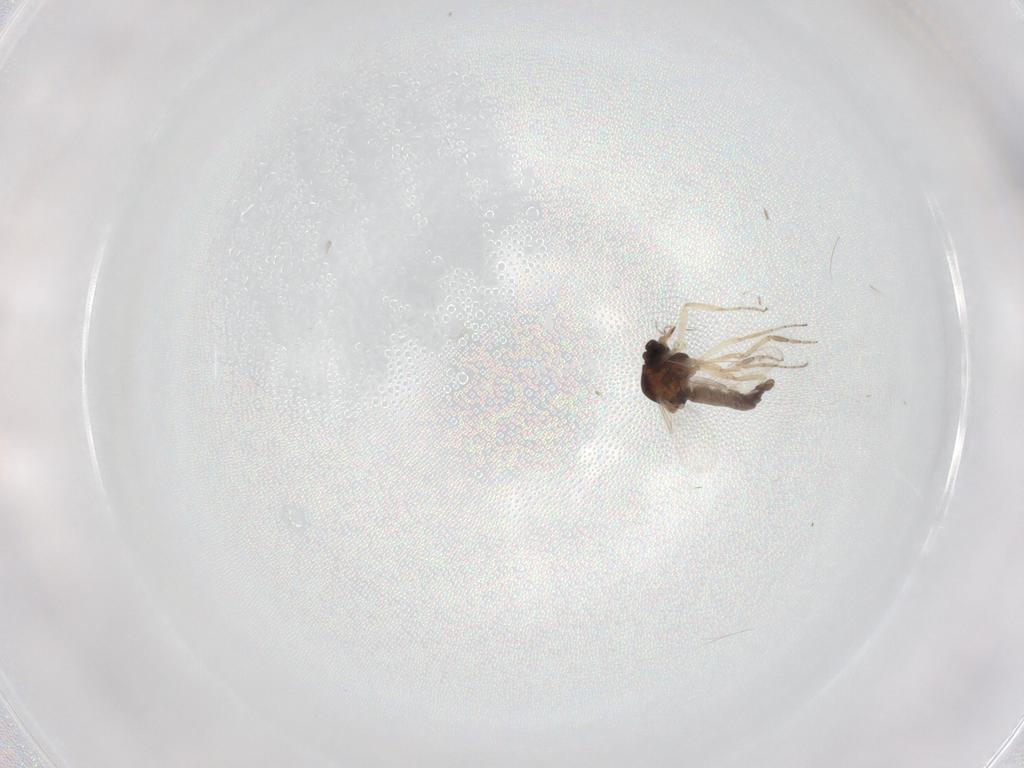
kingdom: Animalia
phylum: Arthropoda
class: Insecta
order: Diptera
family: Ceratopogonidae
